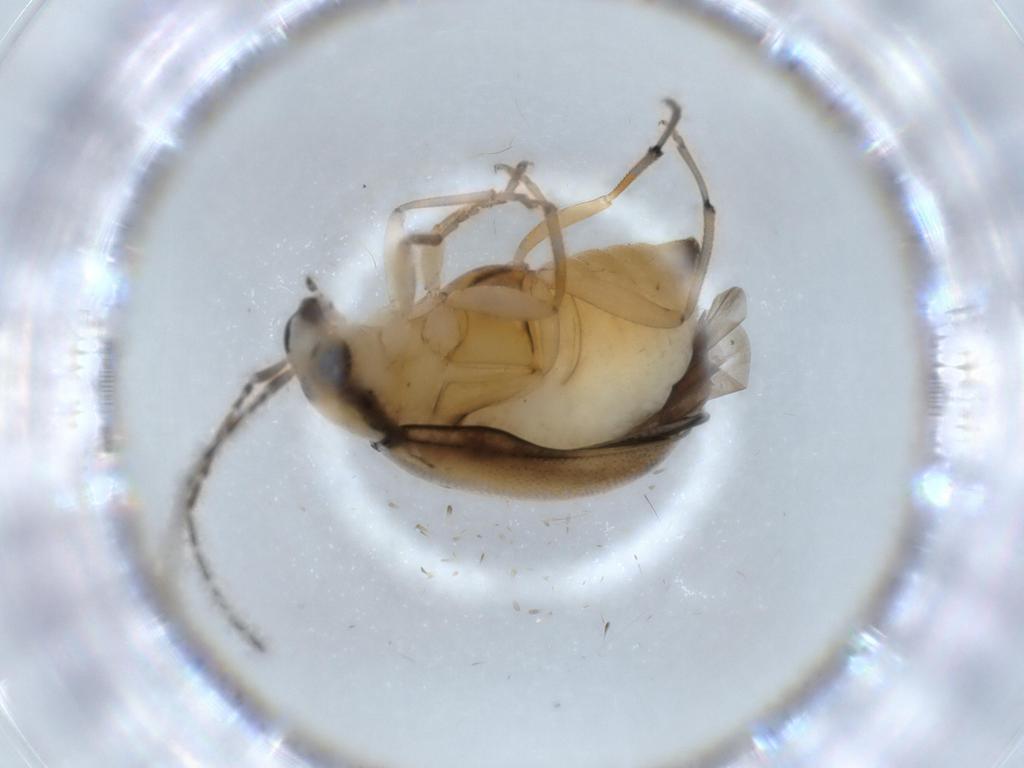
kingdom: Animalia
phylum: Arthropoda
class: Insecta
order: Coleoptera
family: Chrysomelidae
